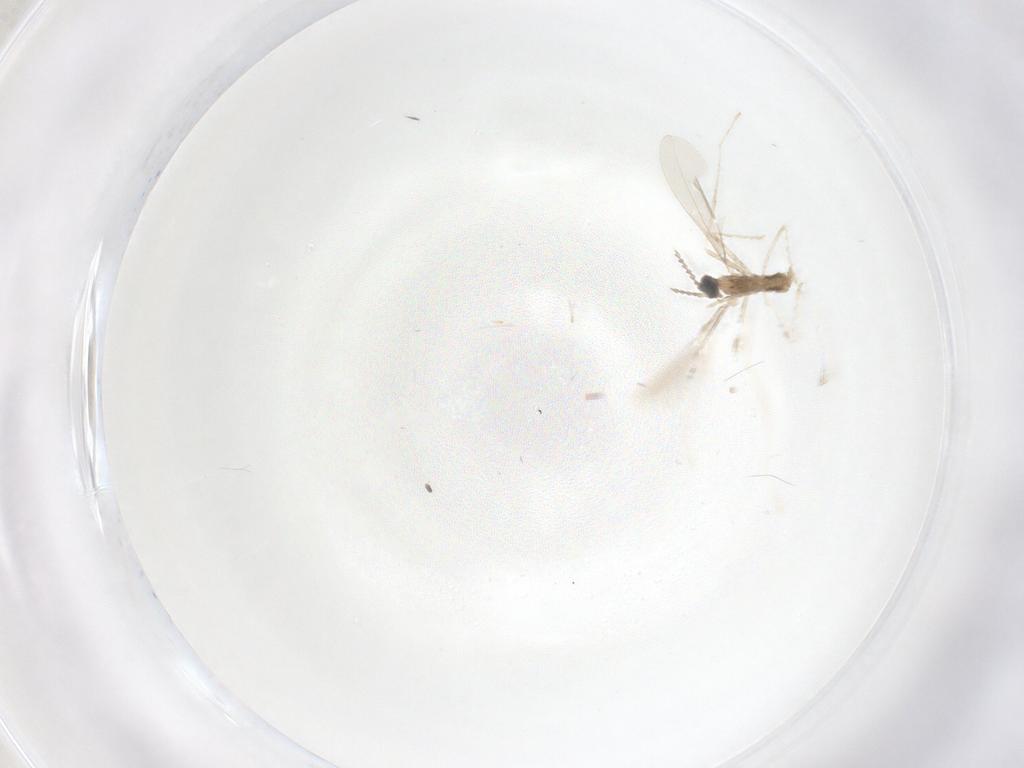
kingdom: Animalia
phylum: Arthropoda
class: Insecta
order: Diptera
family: Cecidomyiidae
